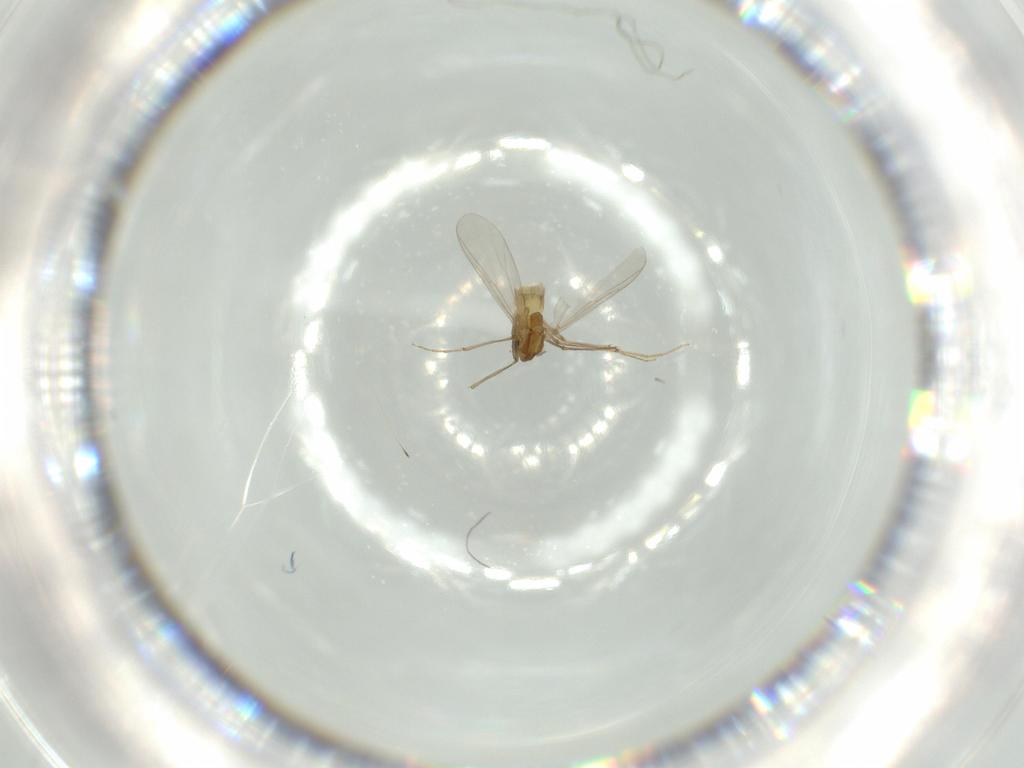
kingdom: Animalia
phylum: Arthropoda
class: Insecta
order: Diptera
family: Chironomidae
